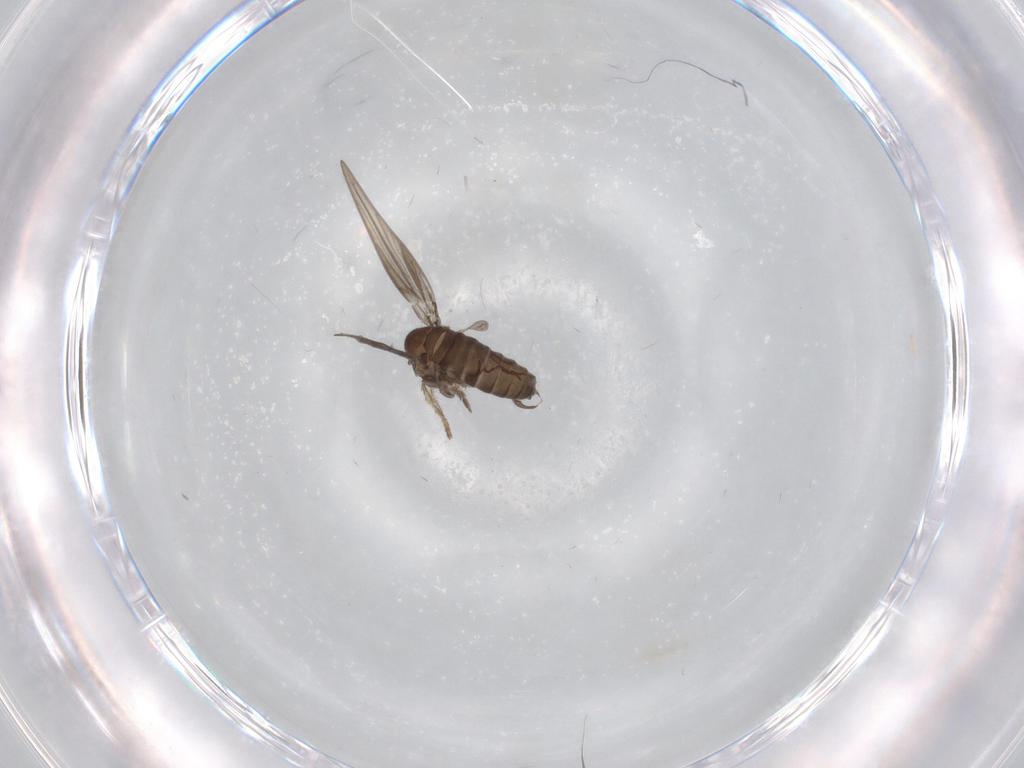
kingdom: Animalia
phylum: Arthropoda
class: Insecta
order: Diptera
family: Psychodidae
